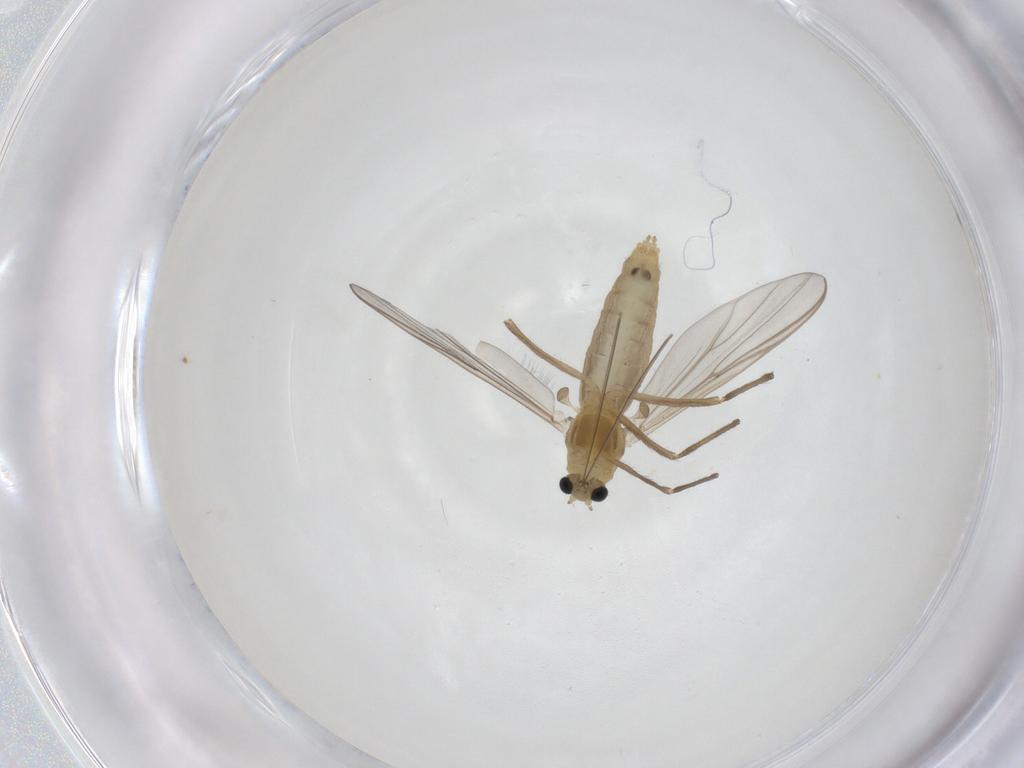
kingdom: Animalia
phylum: Arthropoda
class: Insecta
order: Diptera
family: Chironomidae
